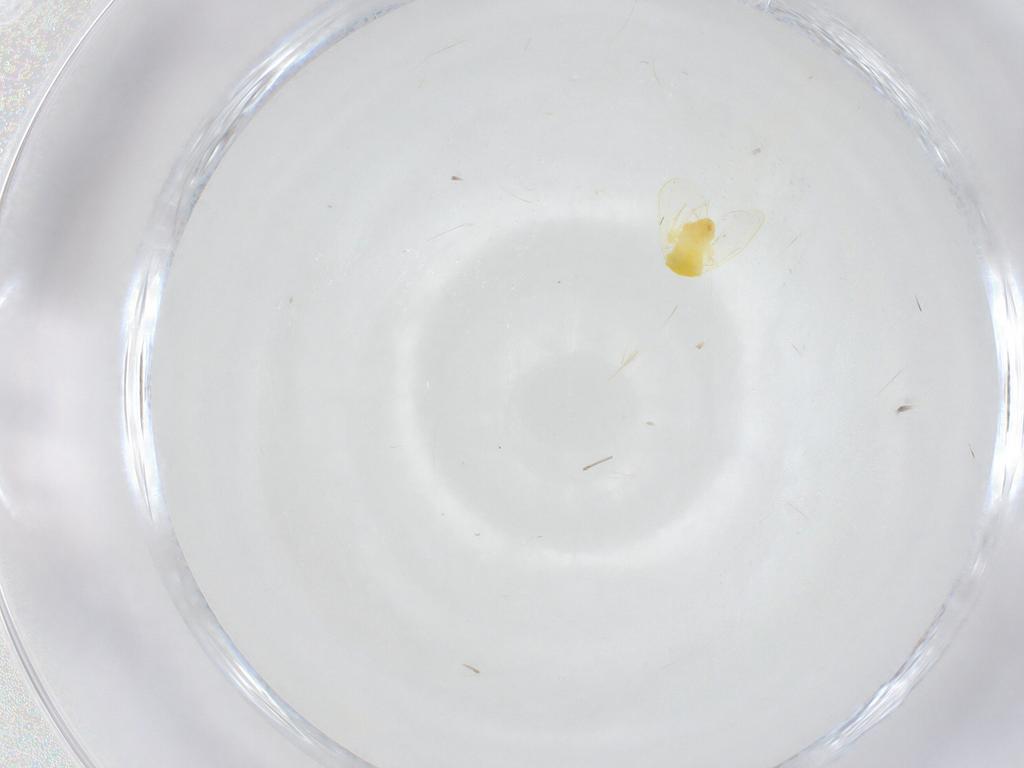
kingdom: Animalia
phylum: Arthropoda
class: Insecta
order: Hemiptera
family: Aleyrodidae
